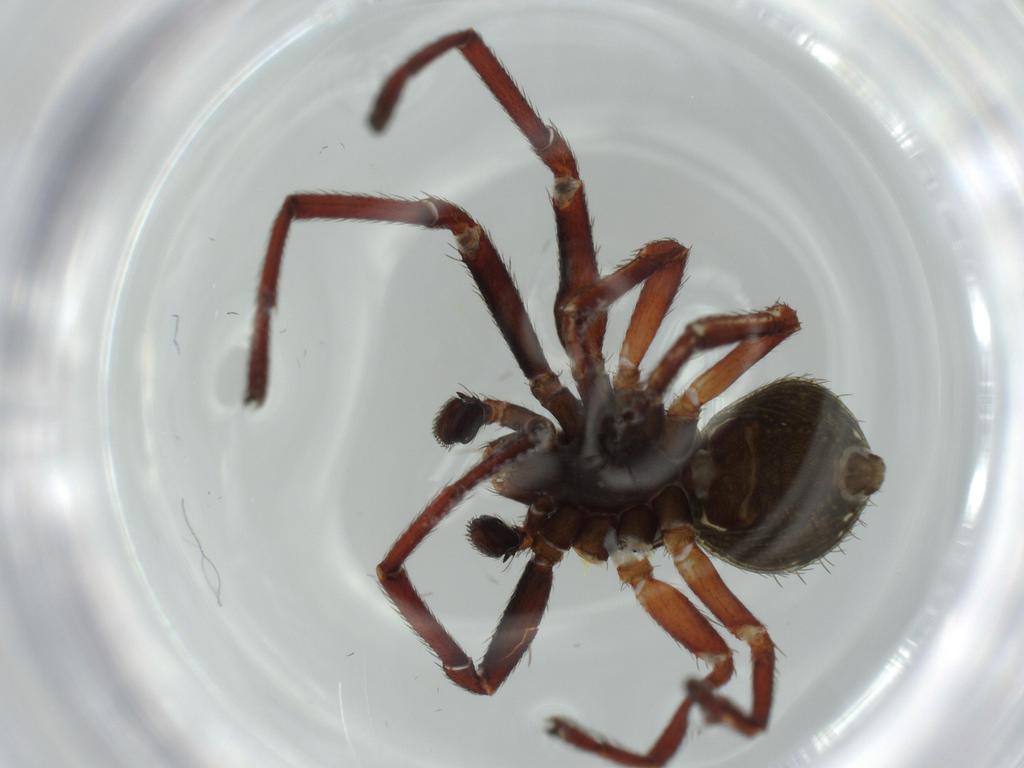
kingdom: Animalia
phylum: Arthropoda
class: Arachnida
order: Araneae
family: Thomisidae
